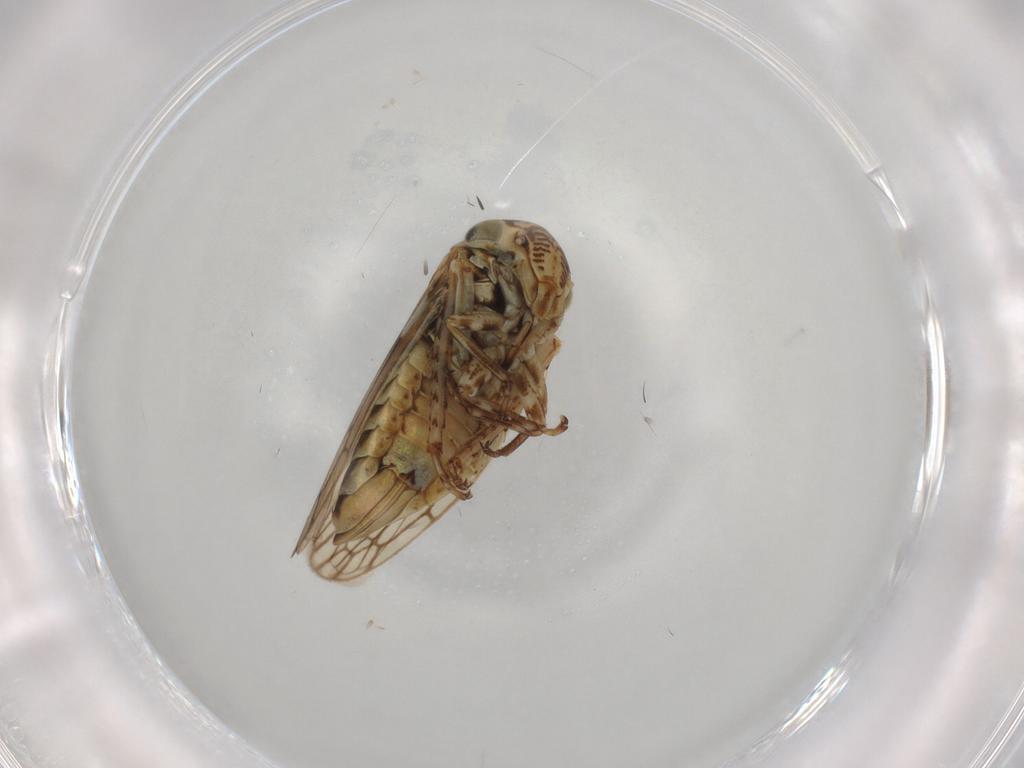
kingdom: Animalia
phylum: Arthropoda
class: Insecta
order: Hemiptera
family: Cicadellidae
